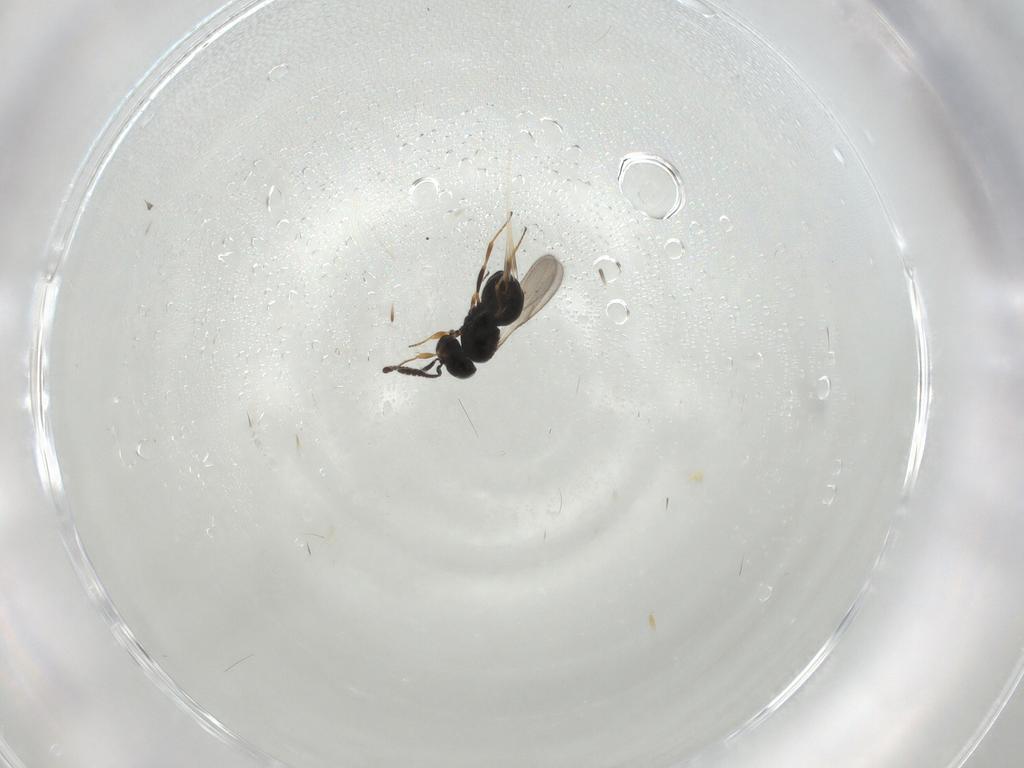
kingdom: Animalia
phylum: Arthropoda
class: Insecta
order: Hymenoptera
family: Scelionidae
